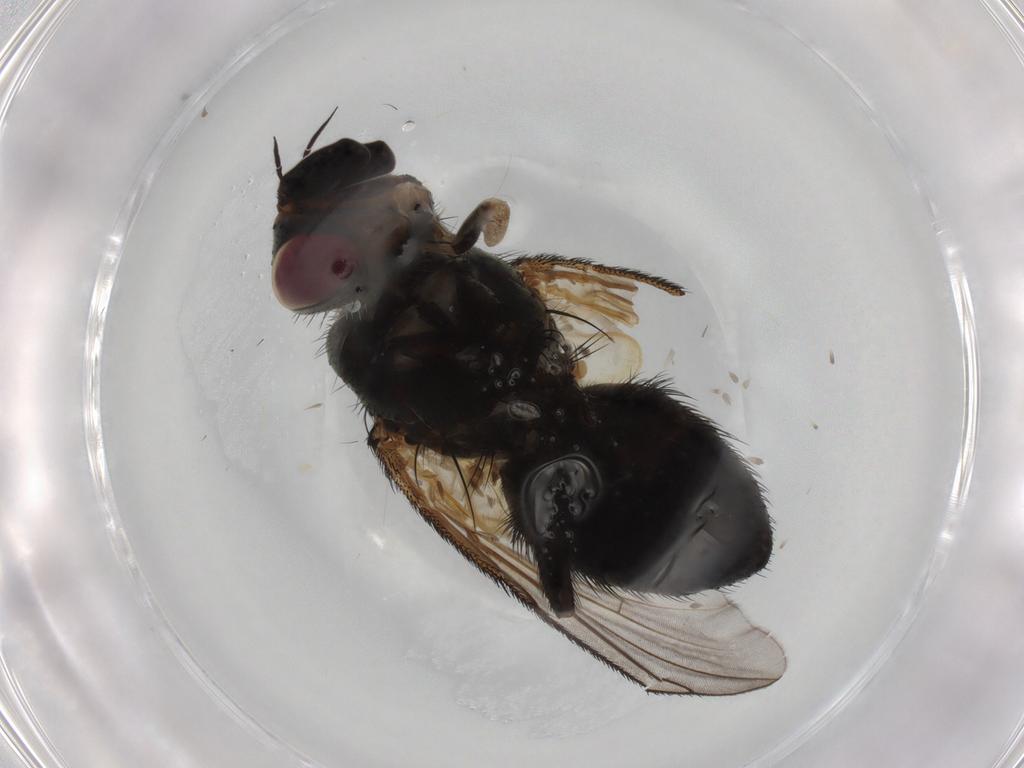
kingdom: Animalia
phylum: Arthropoda
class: Insecta
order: Diptera
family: Tachinidae
